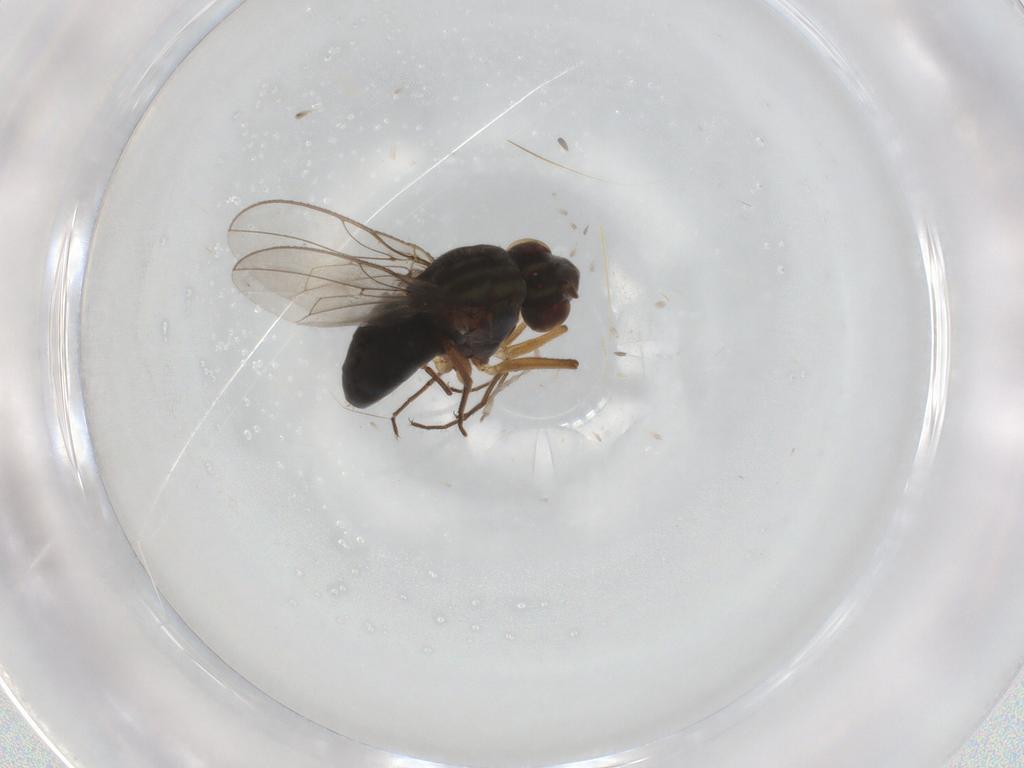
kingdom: Animalia
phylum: Arthropoda
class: Insecta
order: Diptera
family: Ephydridae
